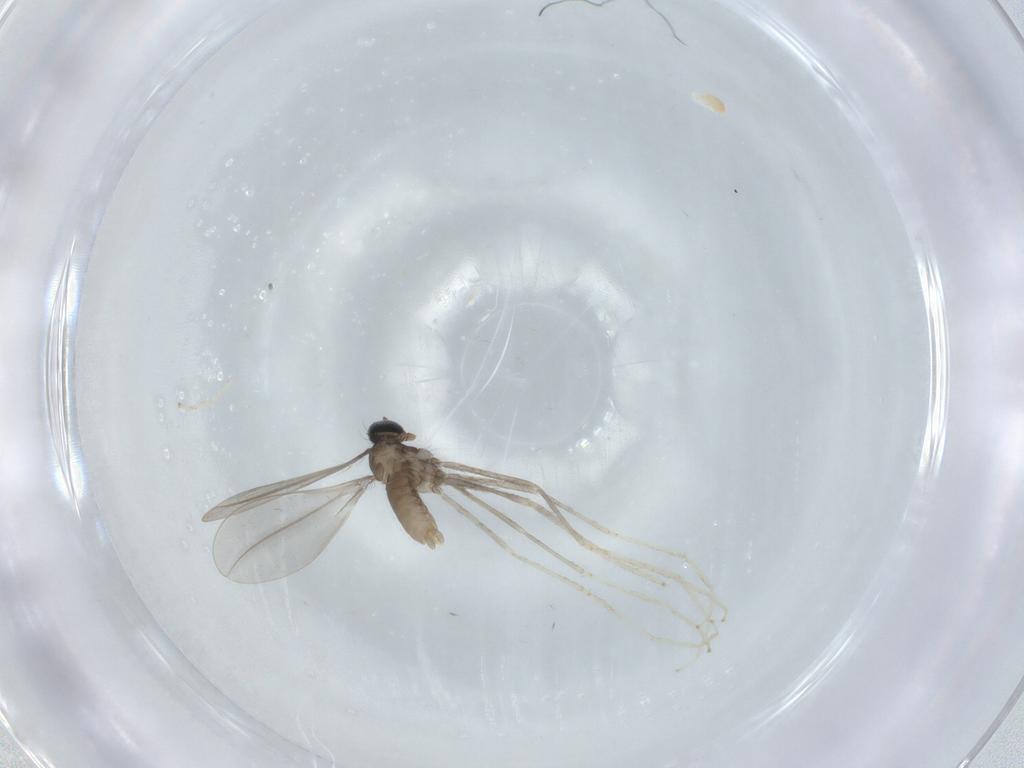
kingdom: Animalia
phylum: Arthropoda
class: Insecta
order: Diptera
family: Cecidomyiidae
